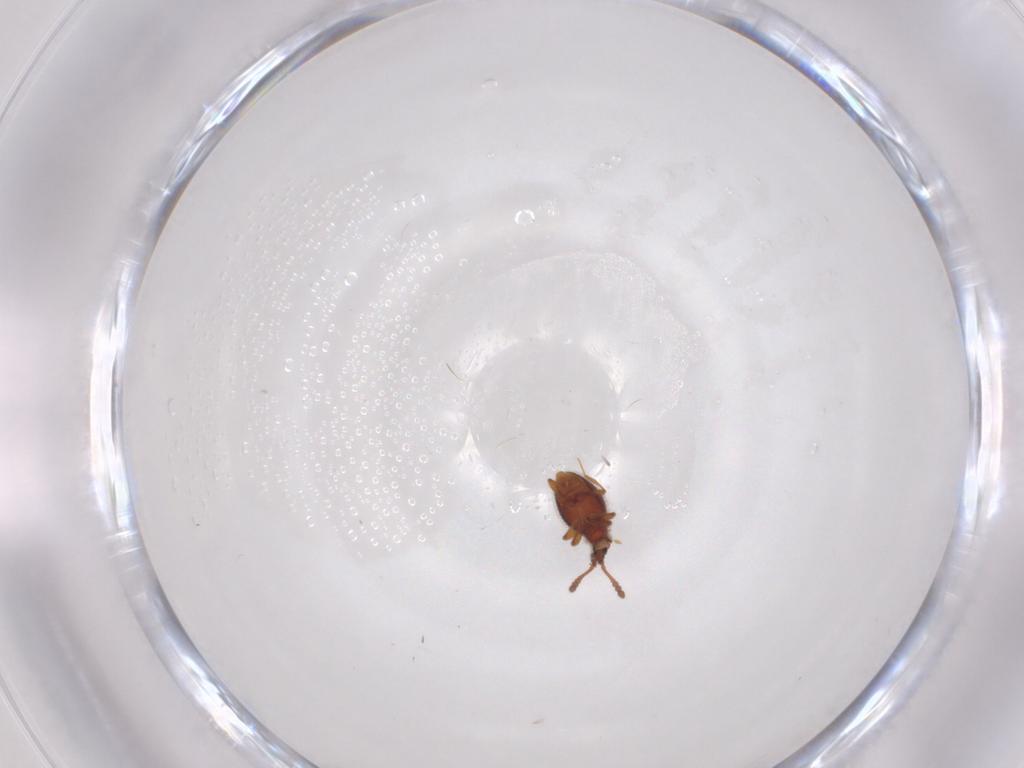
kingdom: Animalia
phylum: Arthropoda
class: Insecta
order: Coleoptera
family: Staphylinidae
